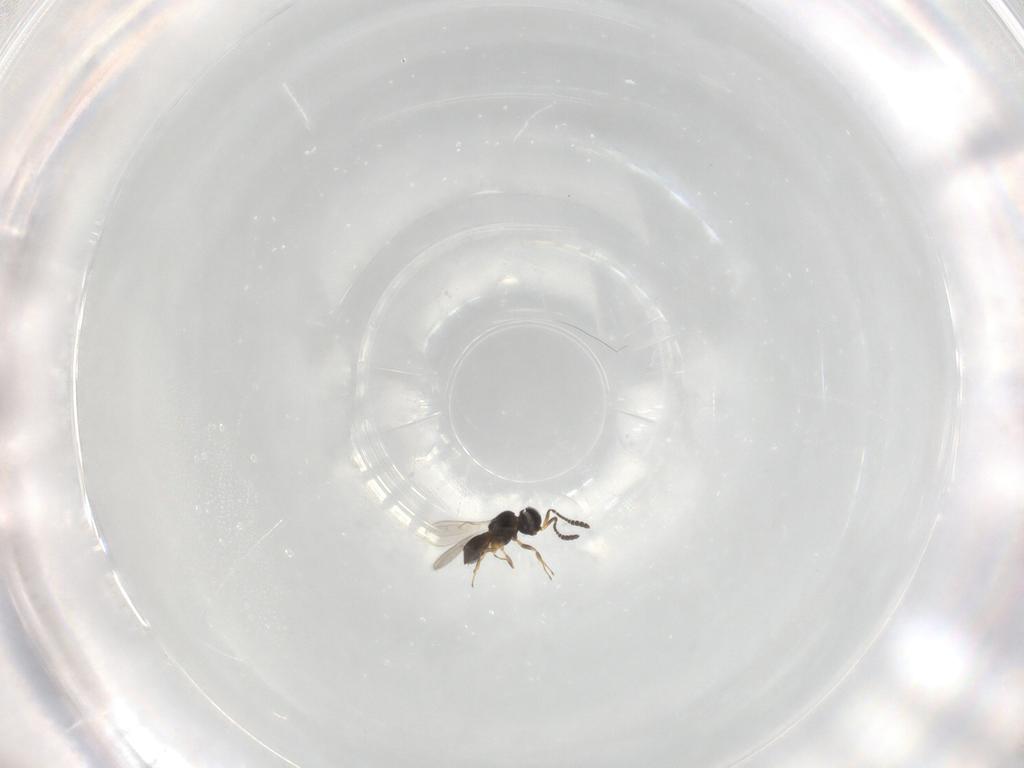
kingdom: Animalia
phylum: Arthropoda
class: Insecta
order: Hymenoptera
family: Scelionidae
